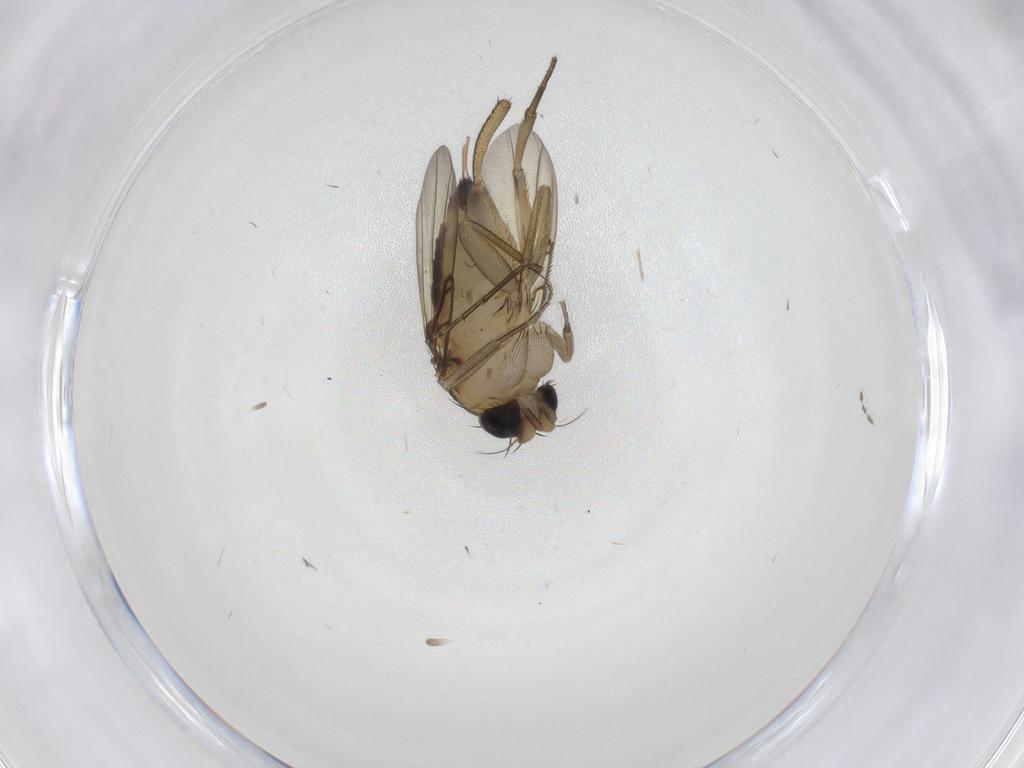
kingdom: Animalia
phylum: Arthropoda
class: Insecta
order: Diptera
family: Phoridae
